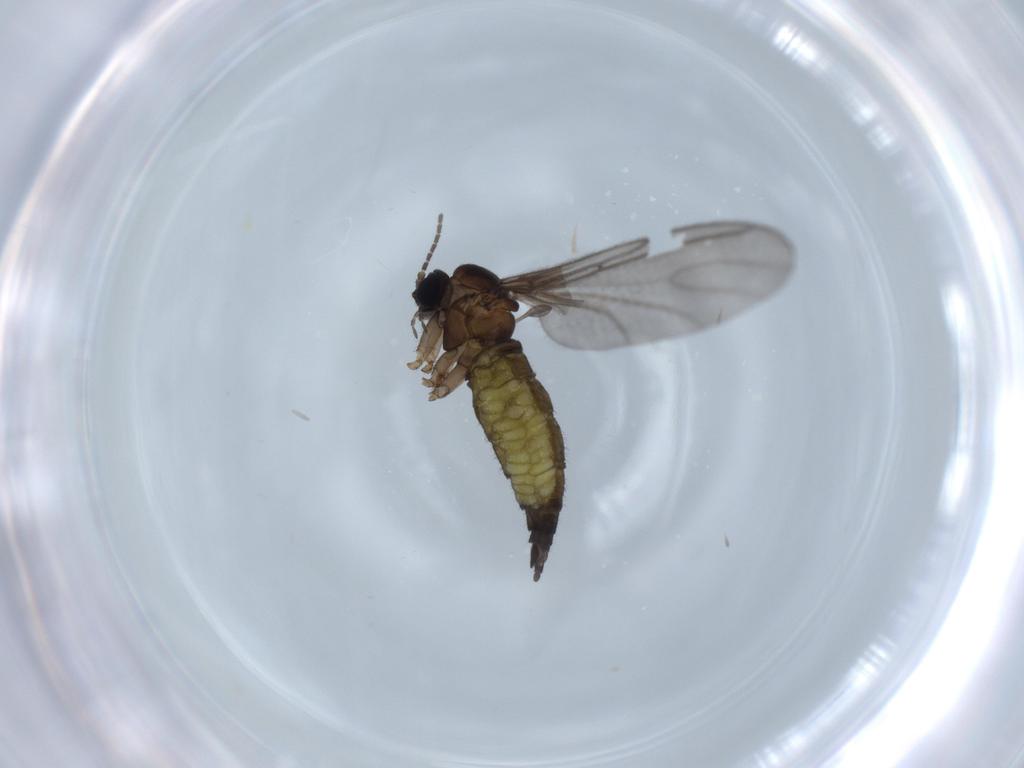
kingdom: Animalia
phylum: Arthropoda
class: Insecta
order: Diptera
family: Sciaridae
